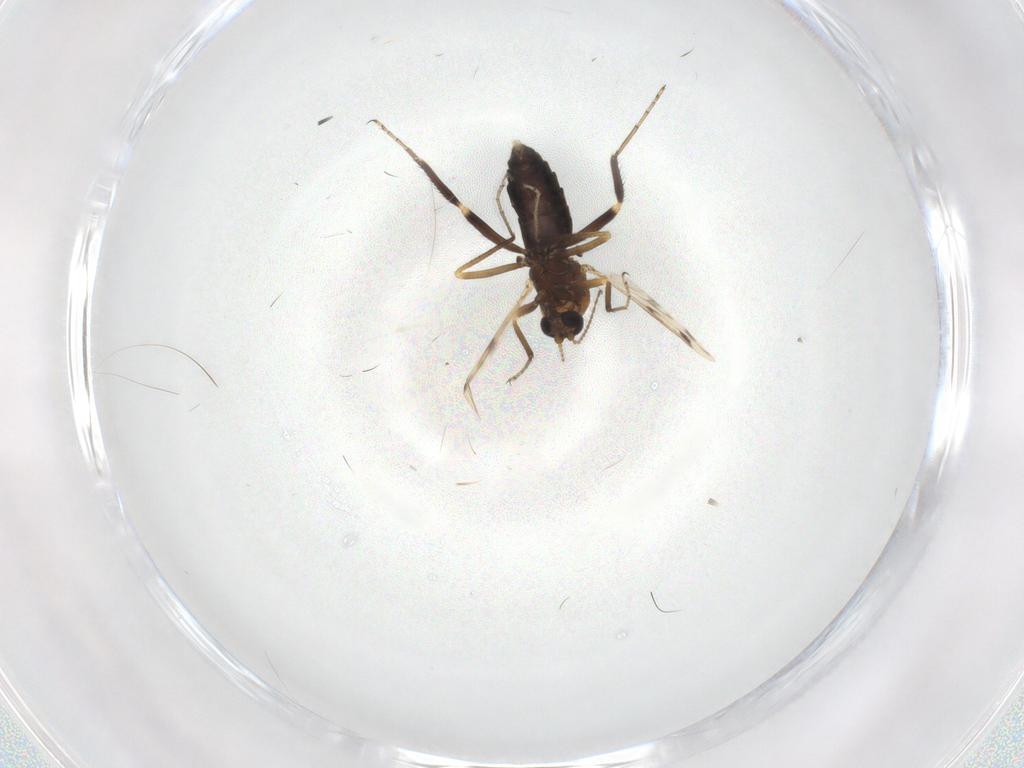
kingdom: Animalia
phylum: Arthropoda
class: Insecta
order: Diptera
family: Ceratopogonidae
